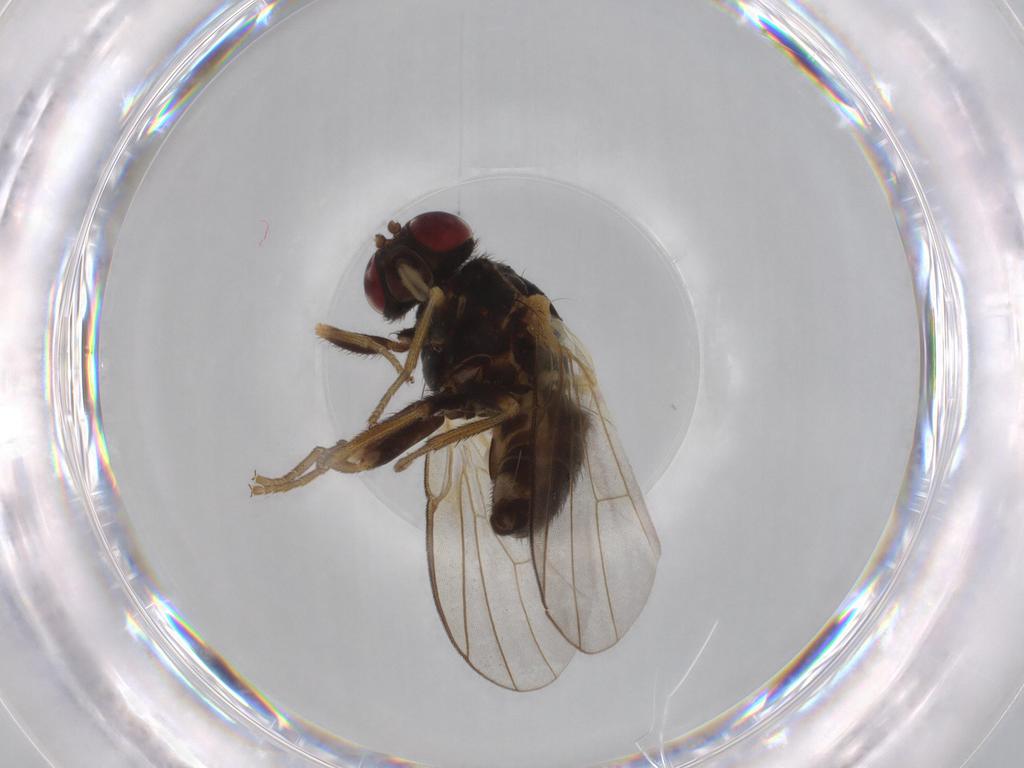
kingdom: Animalia
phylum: Arthropoda
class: Insecta
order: Diptera
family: Agromyzidae
